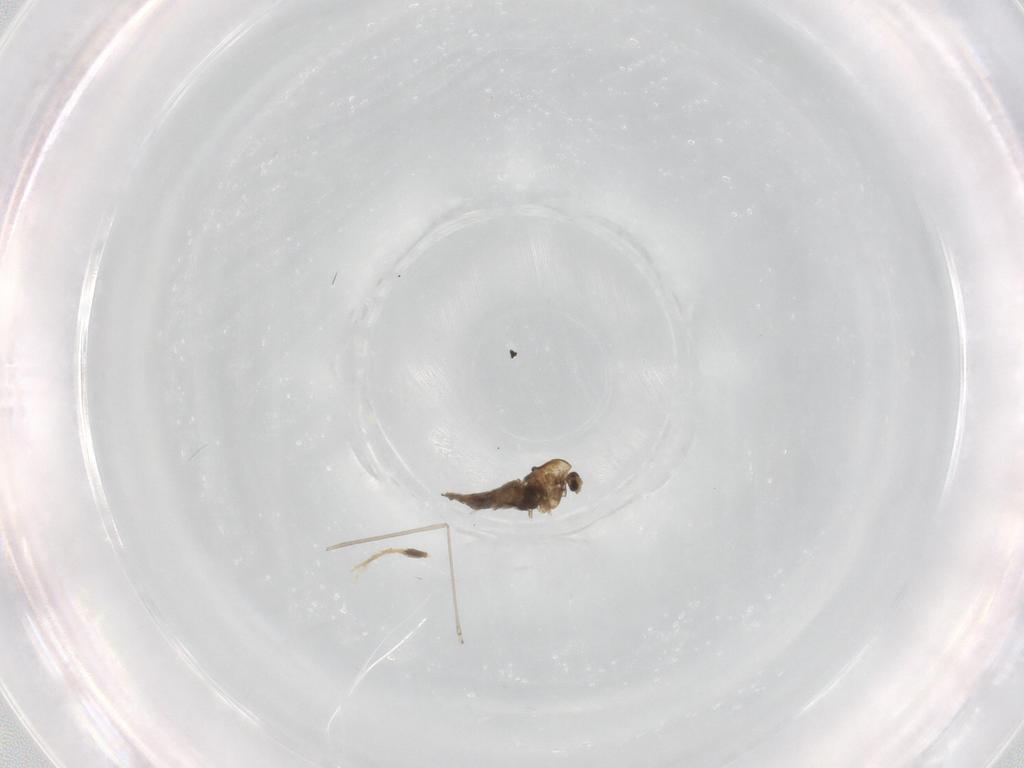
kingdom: Animalia
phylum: Arthropoda
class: Insecta
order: Diptera
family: Chironomidae
